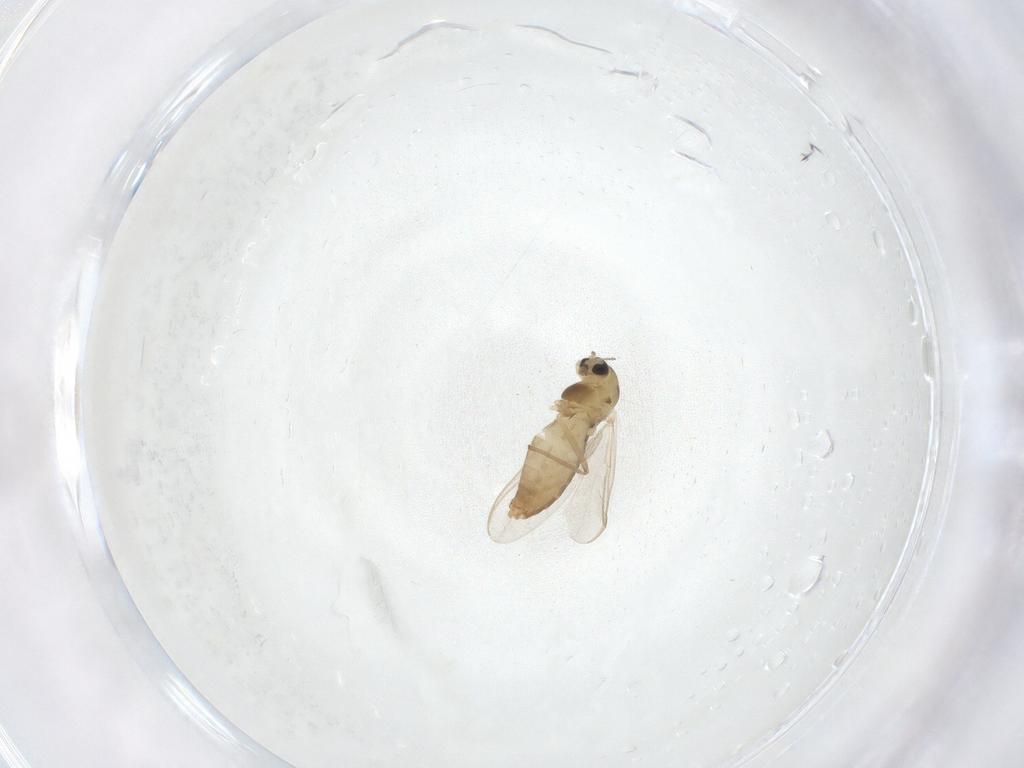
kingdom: Animalia
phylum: Arthropoda
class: Insecta
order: Diptera
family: Chironomidae
